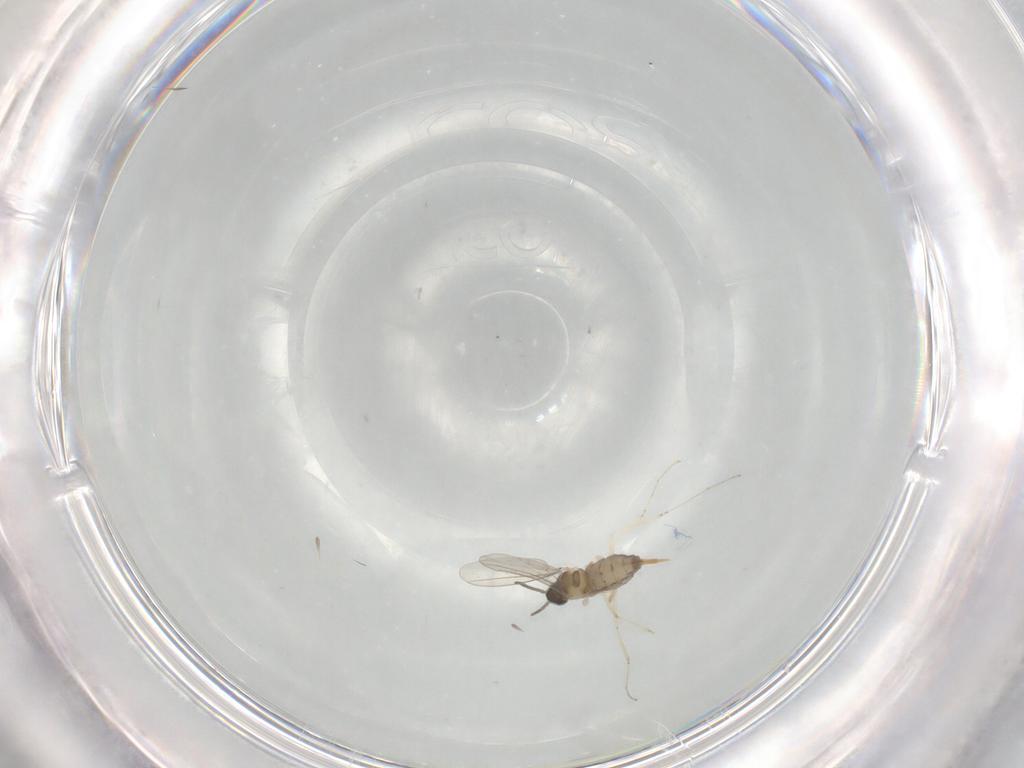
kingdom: Animalia
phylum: Arthropoda
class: Insecta
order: Diptera
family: Cecidomyiidae
